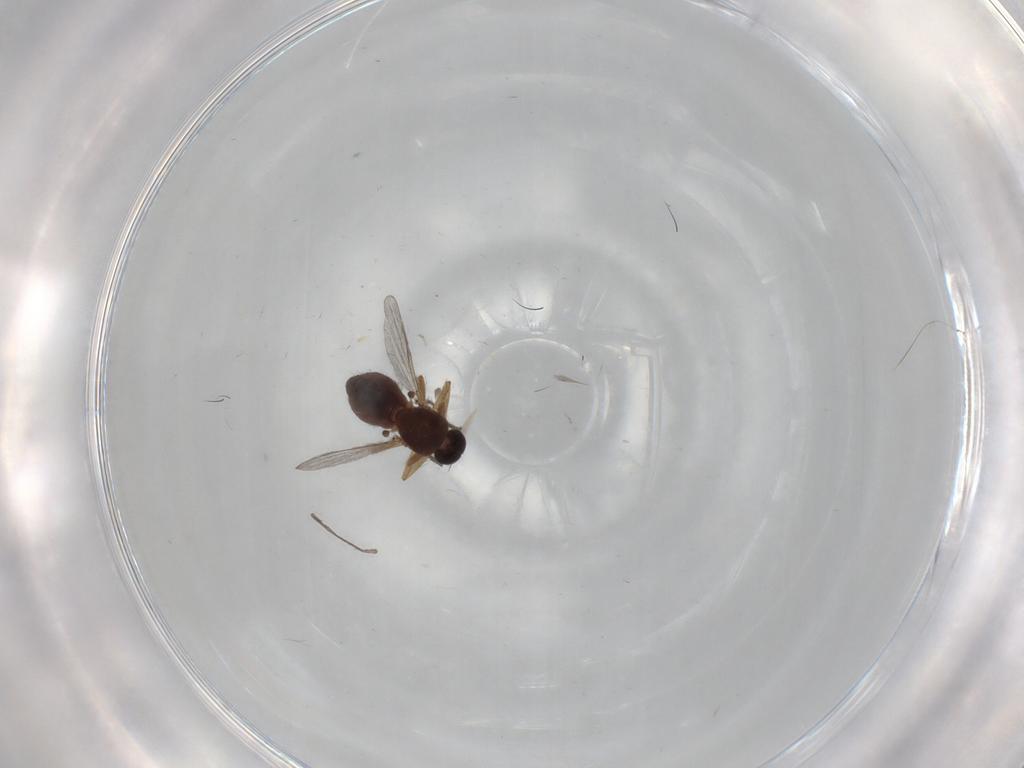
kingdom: Animalia
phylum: Arthropoda
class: Insecta
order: Diptera
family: Ceratopogonidae
